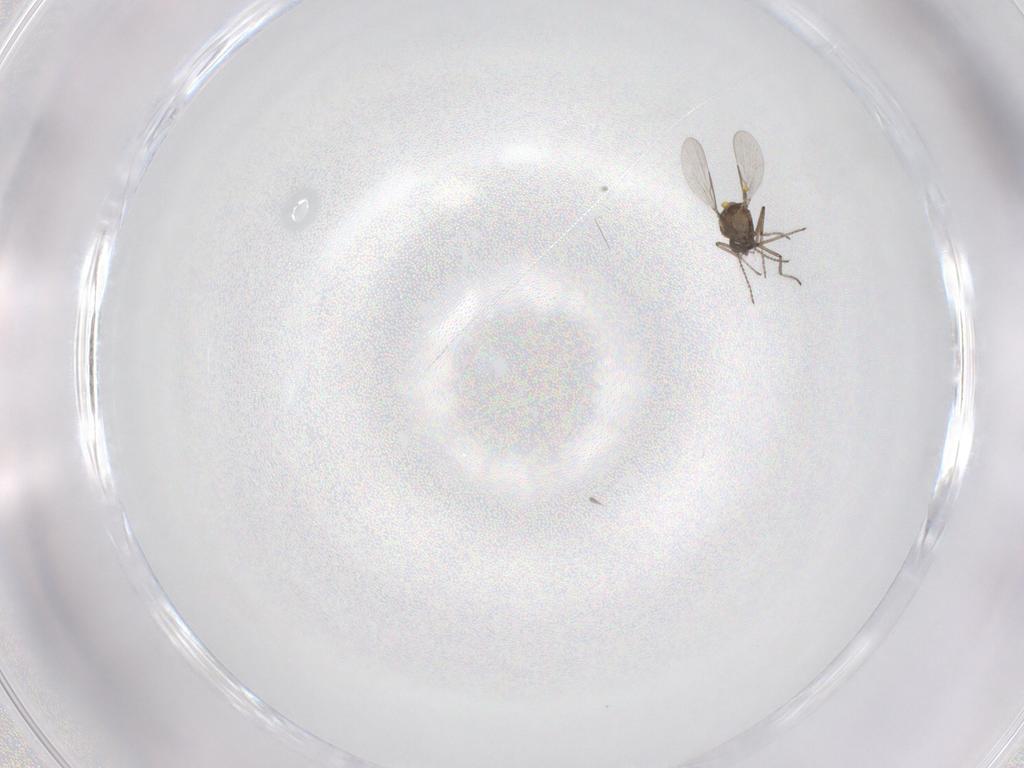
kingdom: Animalia
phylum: Arthropoda
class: Insecta
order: Diptera
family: Ceratopogonidae
